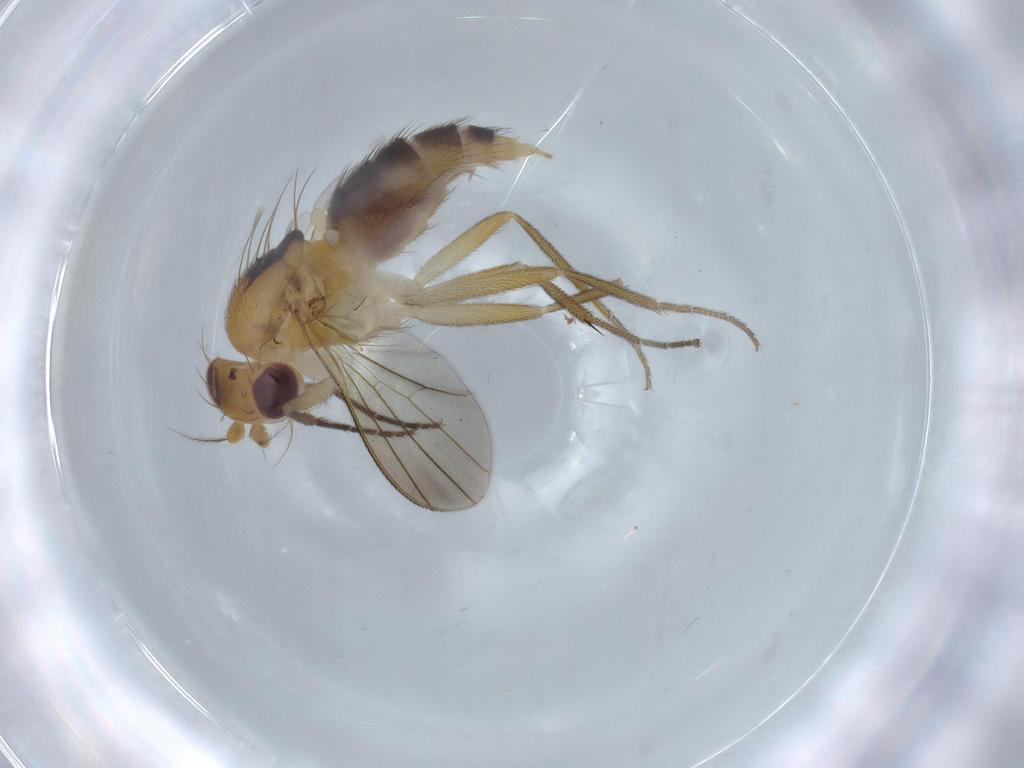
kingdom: Animalia
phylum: Arthropoda
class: Insecta
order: Diptera
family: Clusiidae
